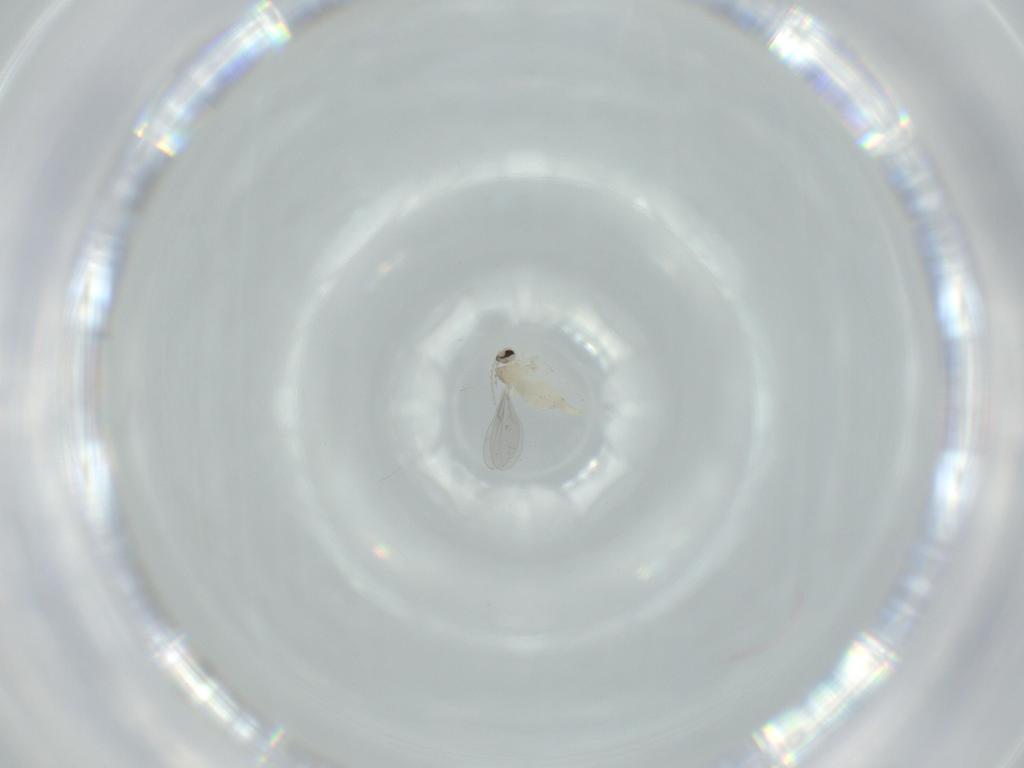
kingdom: Animalia
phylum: Arthropoda
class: Insecta
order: Diptera
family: Cecidomyiidae
